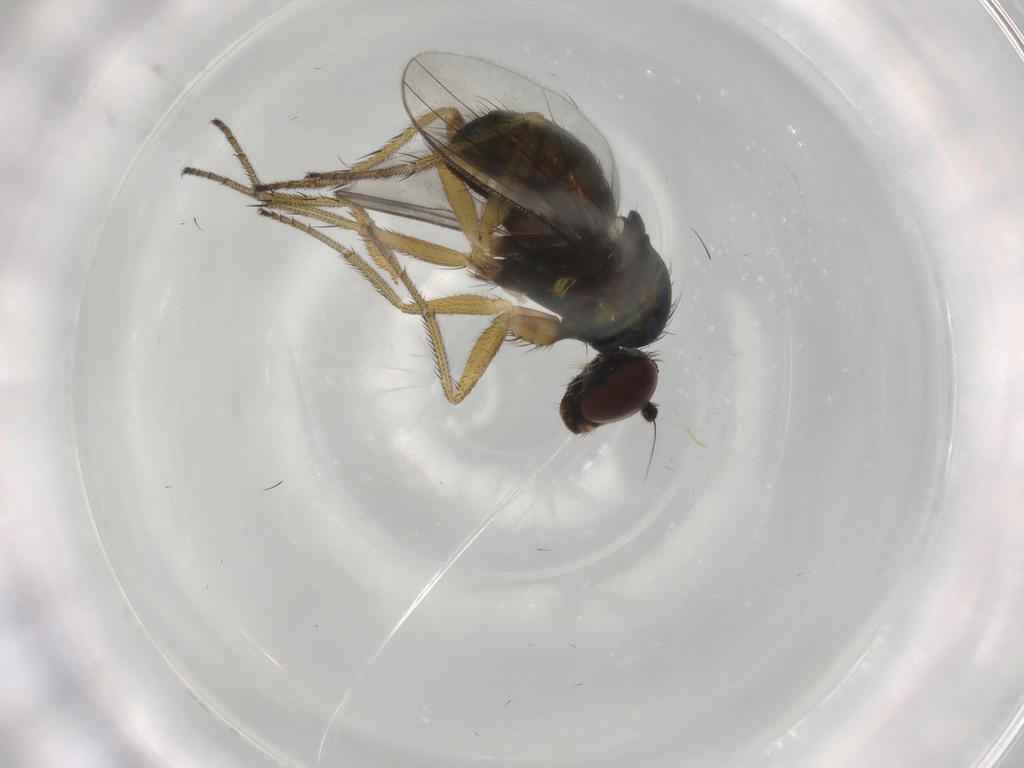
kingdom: Animalia
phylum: Arthropoda
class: Insecta
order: Diptera
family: Dolichopodidae
